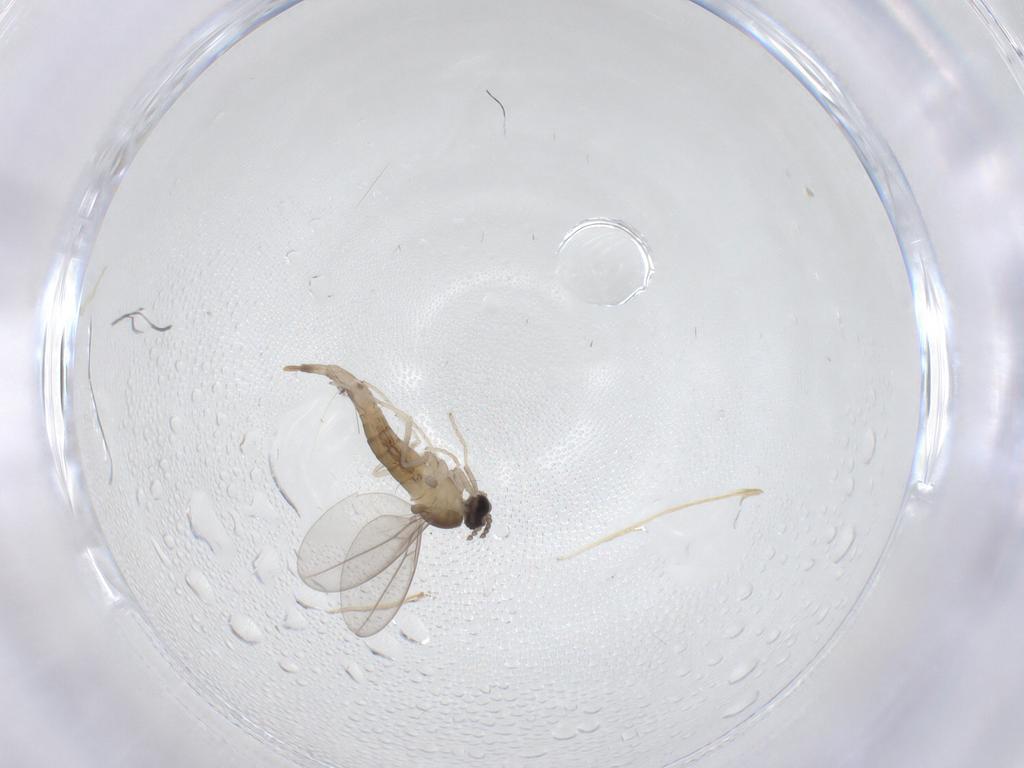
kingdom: Animalia
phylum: Arthropoda
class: Insecta
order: Diptera
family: Cecidomyiidae
